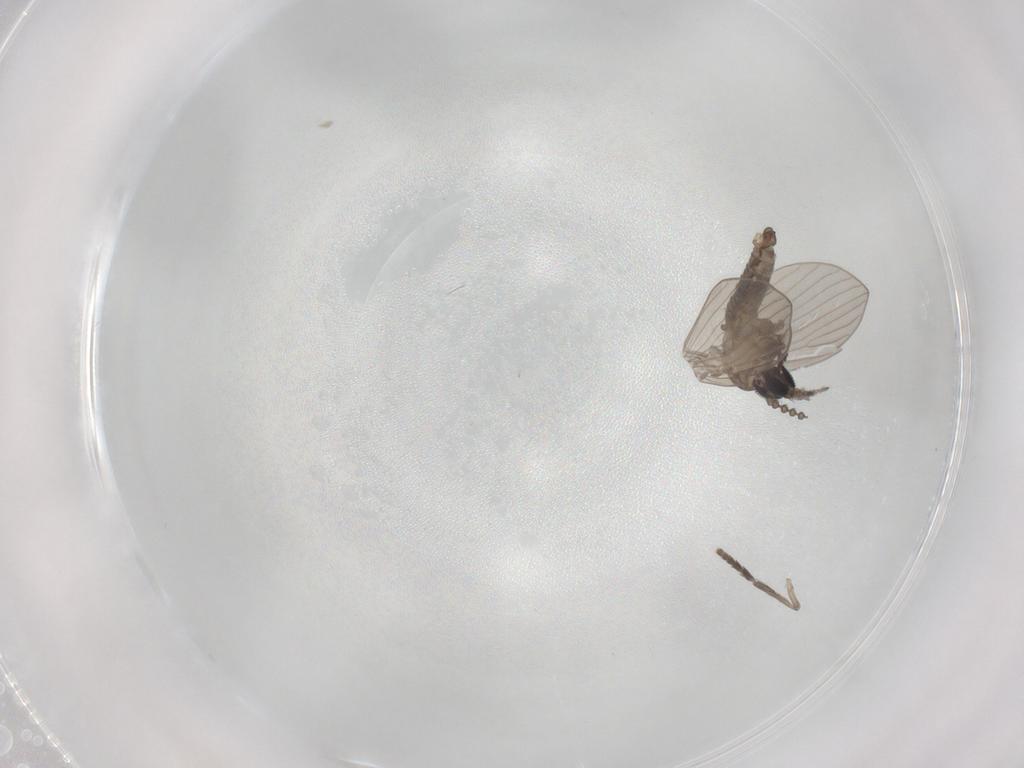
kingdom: Animalia
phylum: Arthropoda
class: Insecta
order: Diptera
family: Psychodidae
